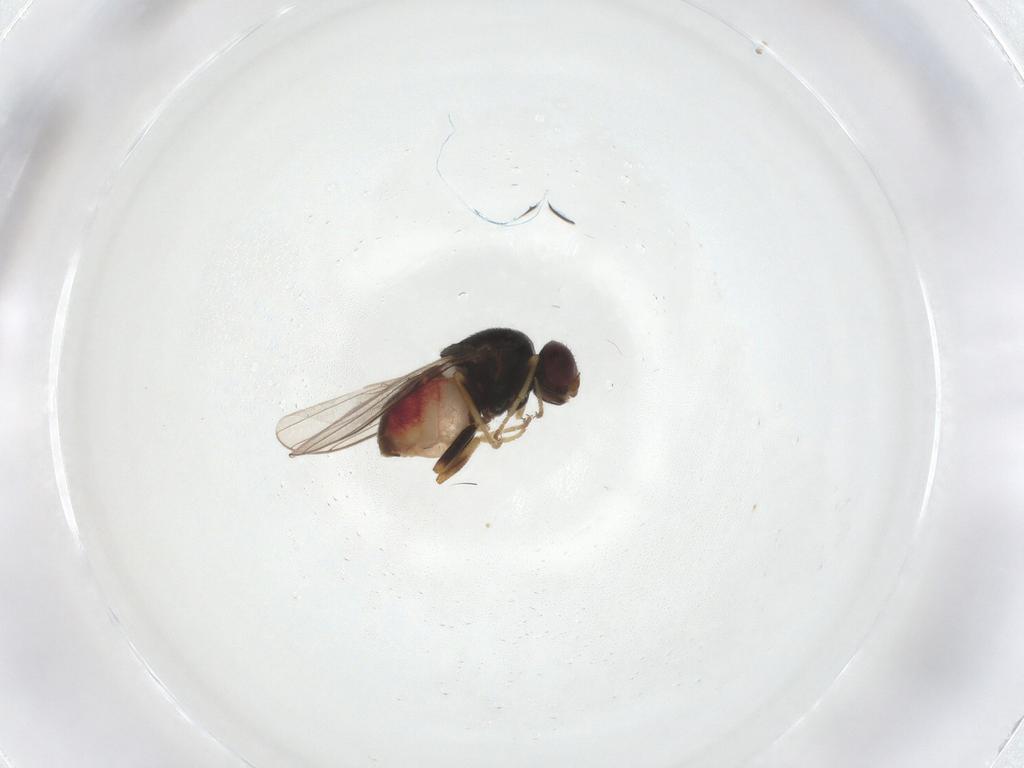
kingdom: Animalia
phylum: Arthropoda
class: Insecta
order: Diptera
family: Chloropidae
